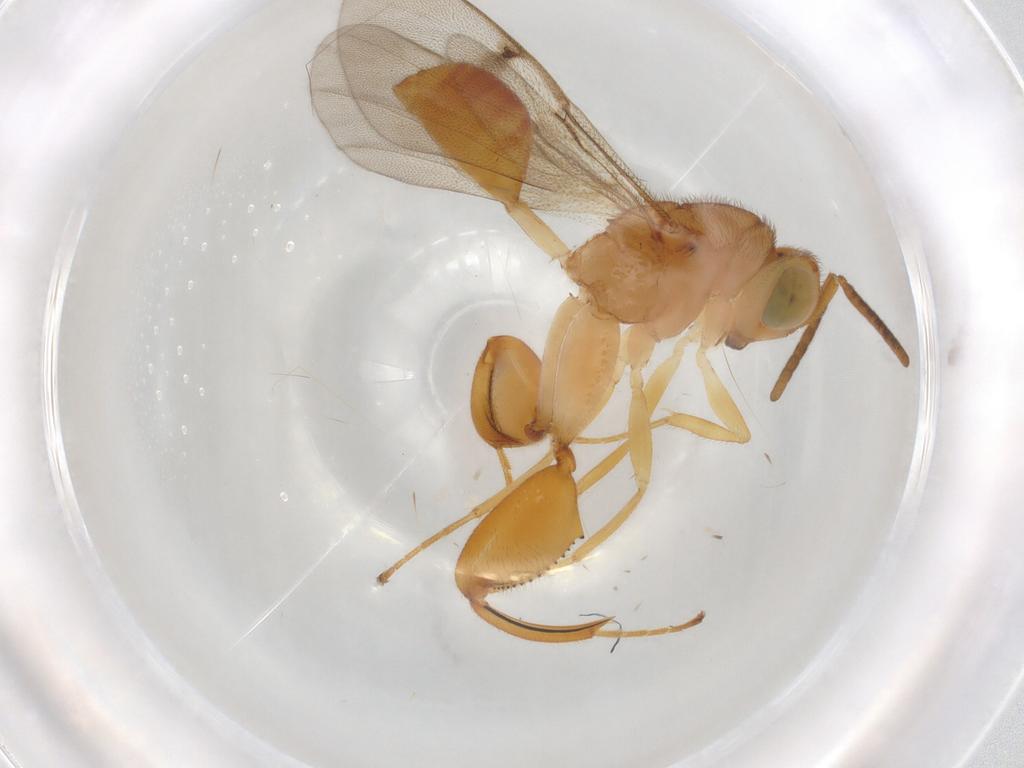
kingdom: Animalia
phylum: Arthropoda
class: Insecta
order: Hymenoptera
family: Chalcididae
